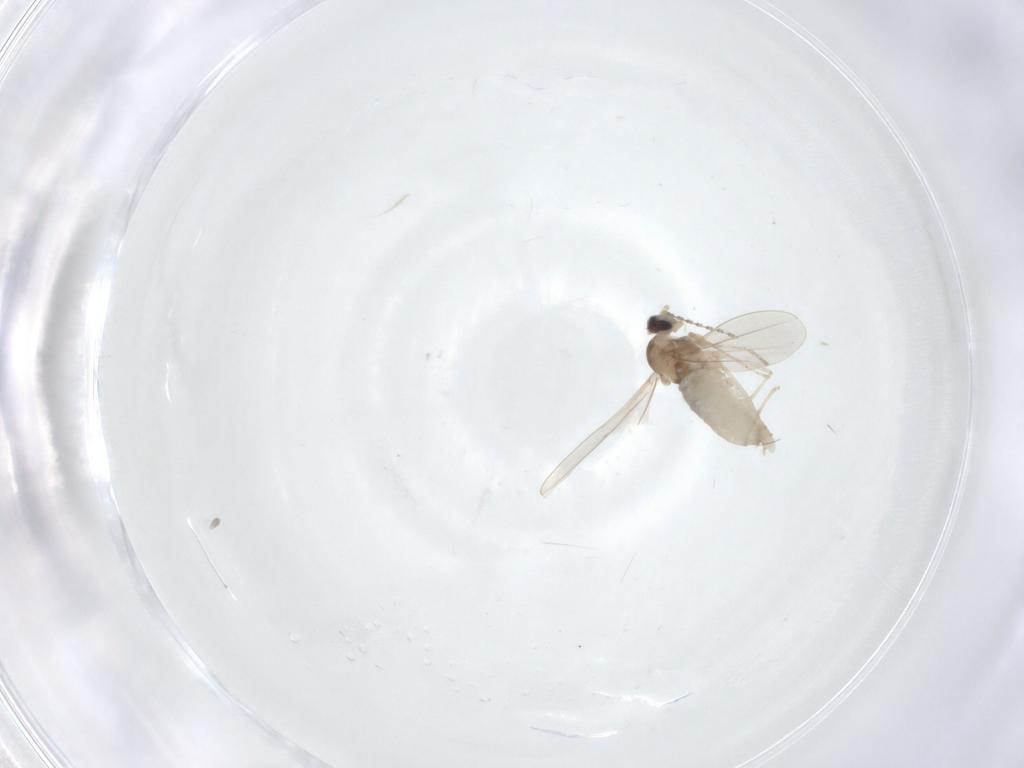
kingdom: Animalia
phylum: Arthropoda
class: Insecta
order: Diptera
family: Cecidomyiidae
